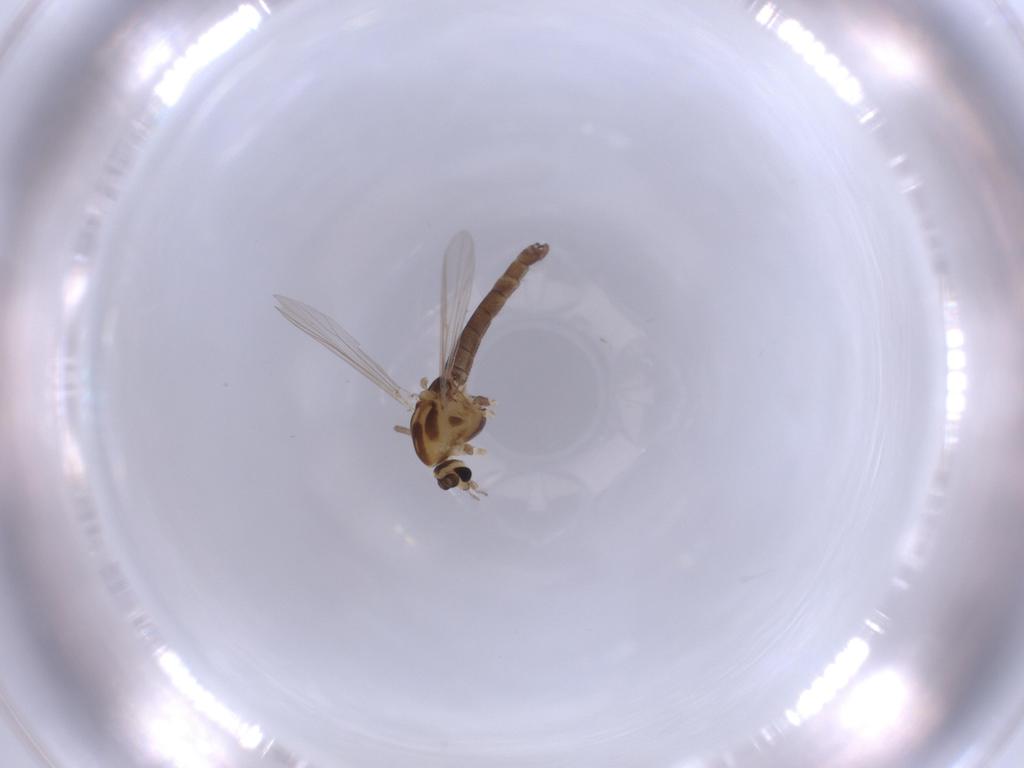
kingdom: Animalia
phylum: Arthropoda
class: Insecta
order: Diptera
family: Chironomidae
